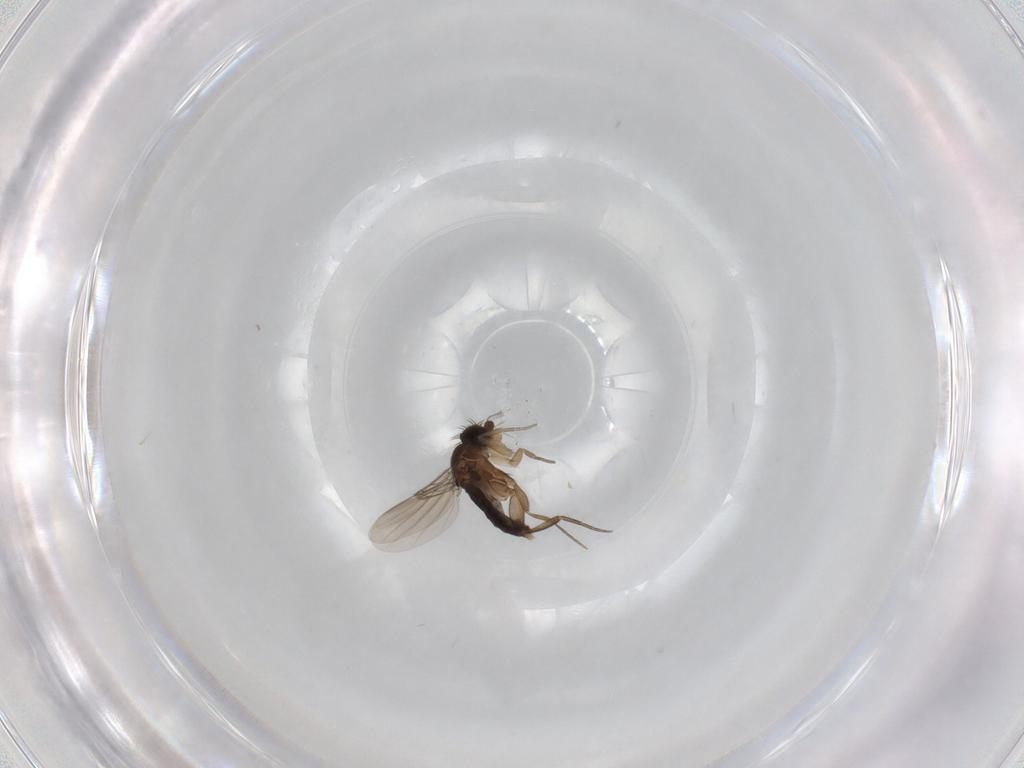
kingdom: Animalia
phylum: Arthropoda
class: Insecta
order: Diptera
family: Phoridae
